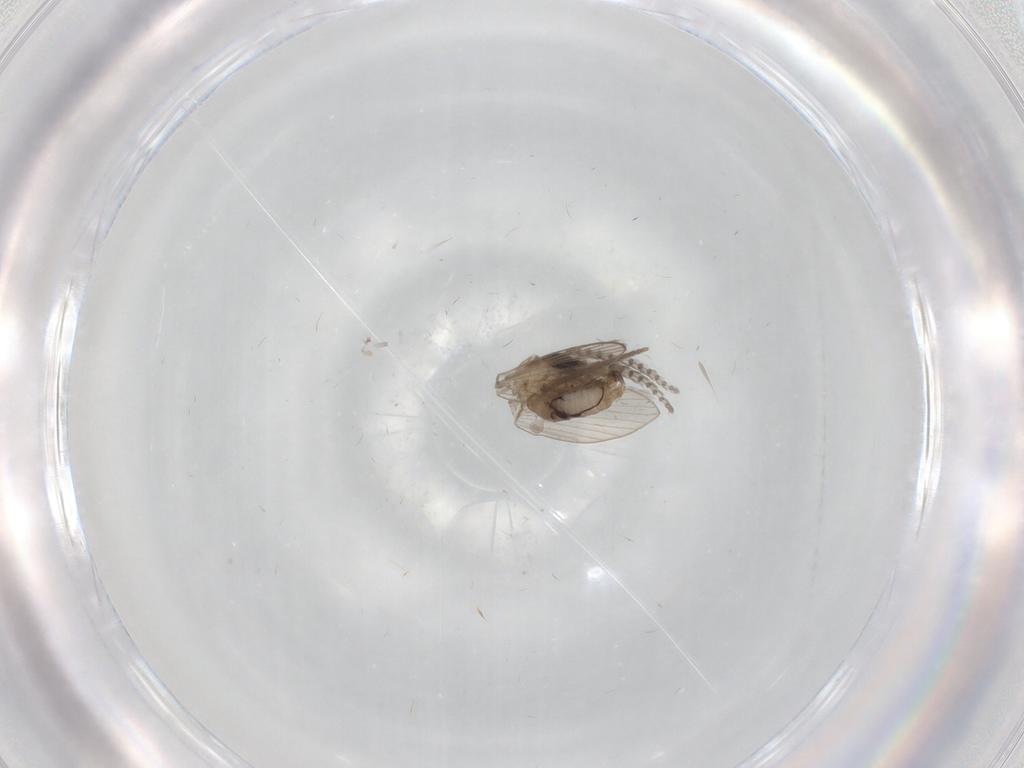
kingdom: Animalia
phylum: Arthropoda
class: Insecta
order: Diptera
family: Psychodidae
